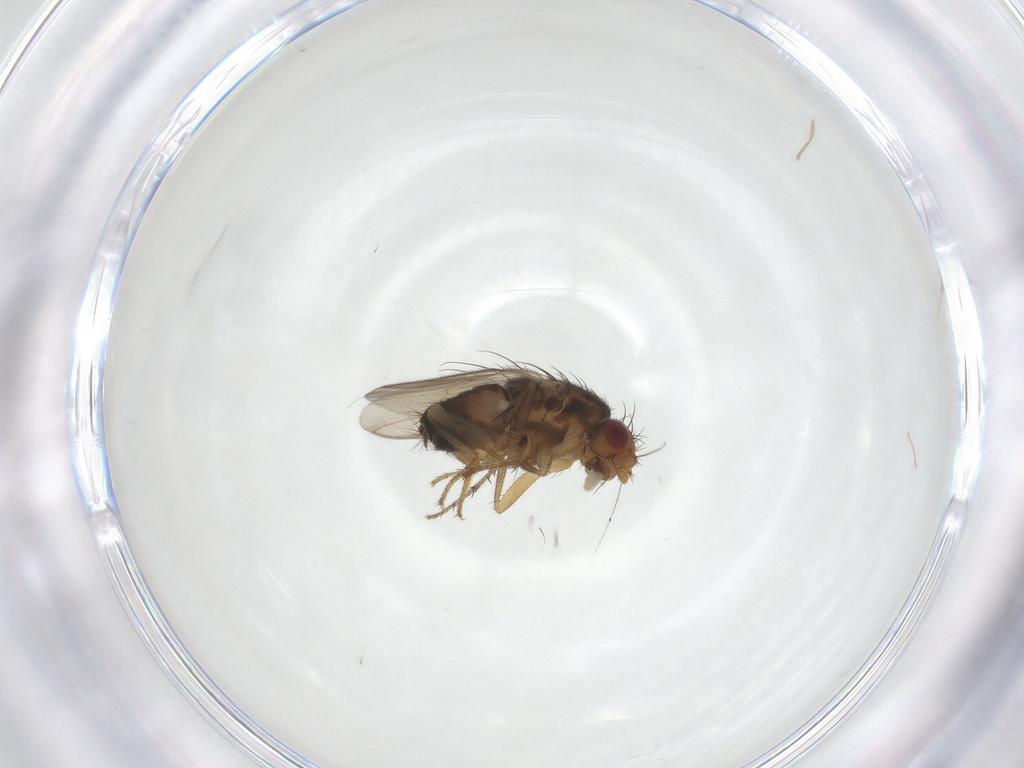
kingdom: Animalia
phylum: Arthropoda
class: Insecta
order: Diptera
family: Sphaeroceridae
